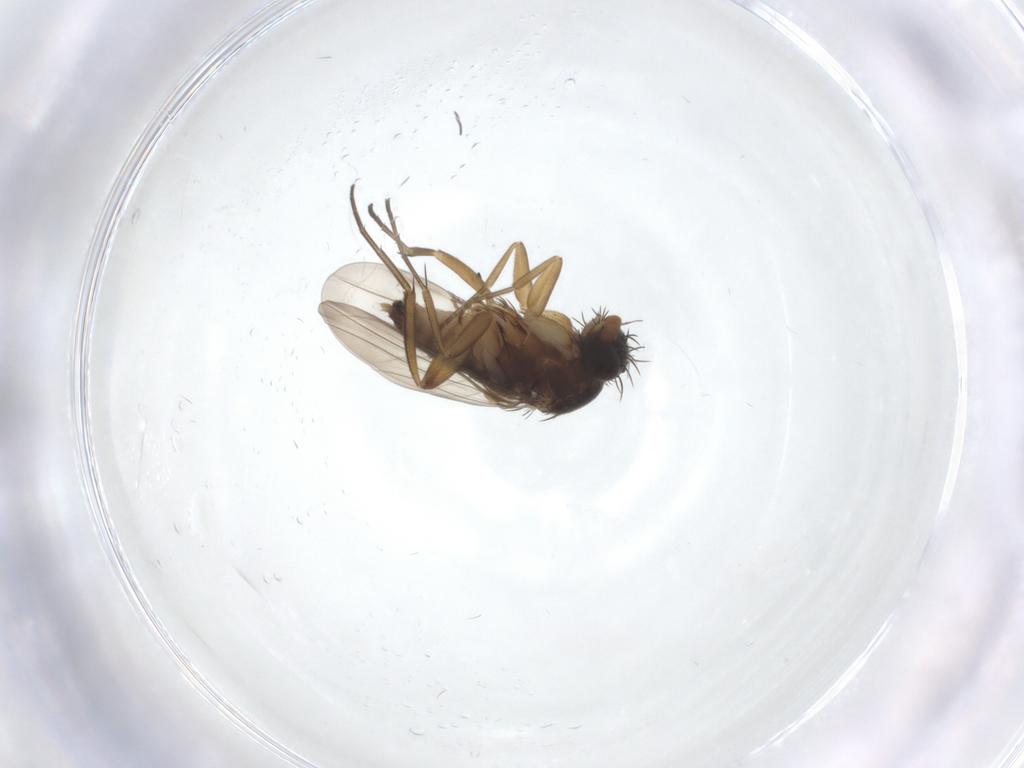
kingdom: Animalia
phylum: Arthropoda
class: Insecta
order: Diptera
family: Phoridae
